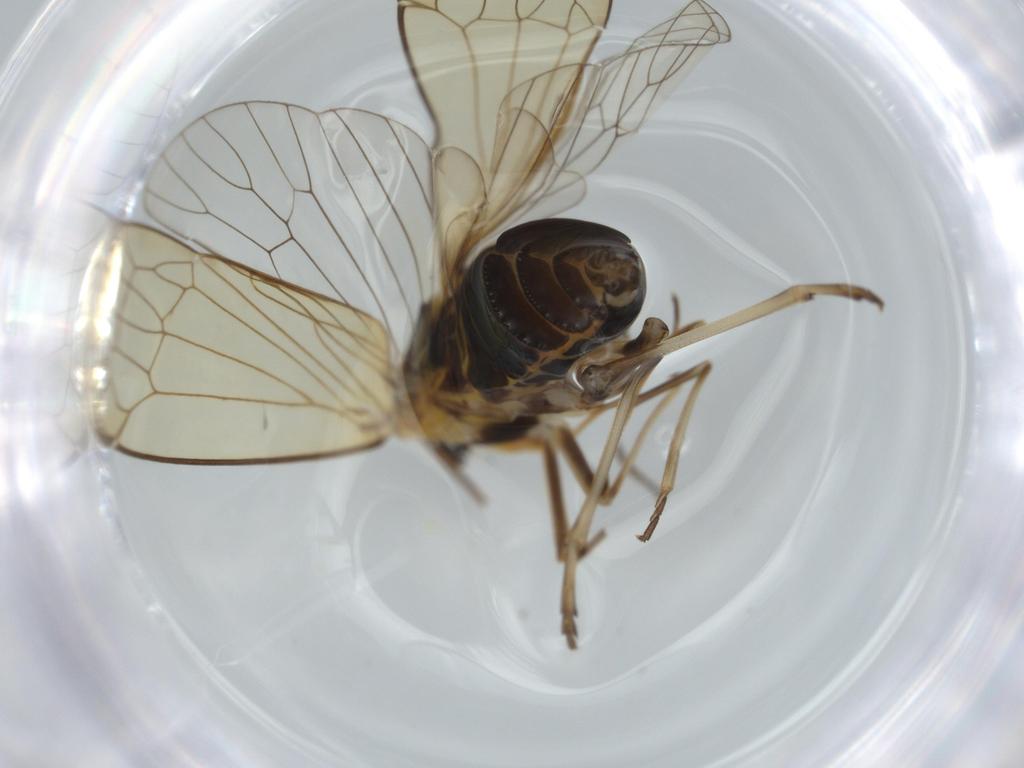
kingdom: Animalia
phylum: Arthropoda
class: Insecta
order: Hemiptera
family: Kinnaridae
